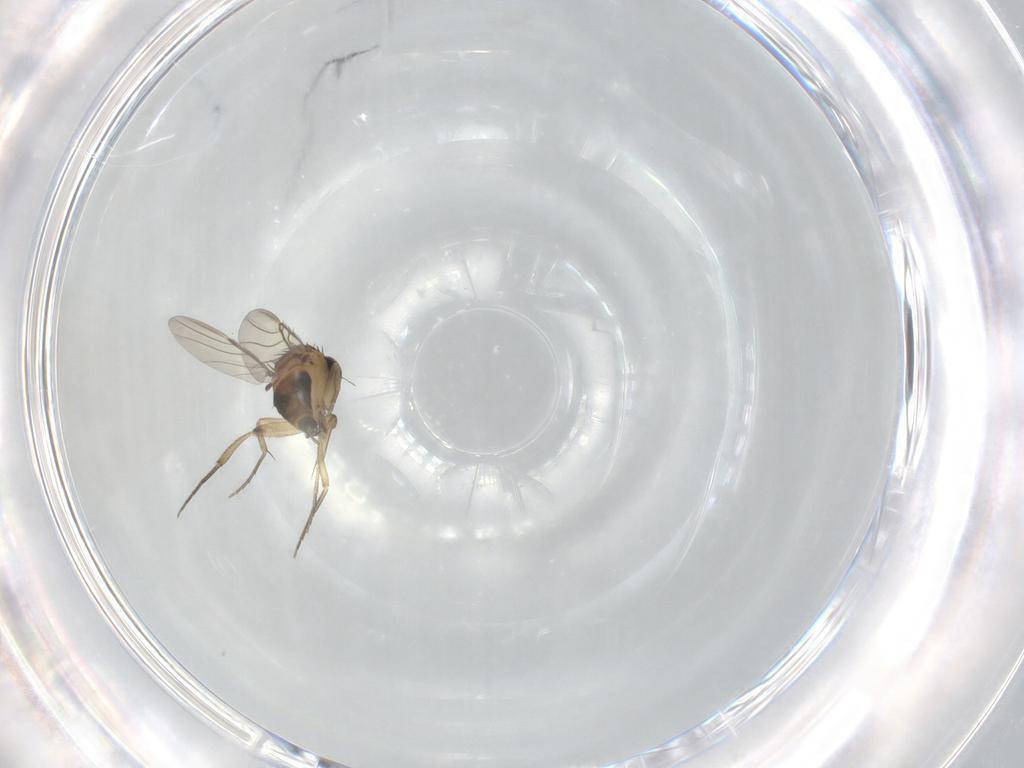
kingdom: Animalia
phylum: Arthropoda
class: Insecta
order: Diptera
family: Phoridae
